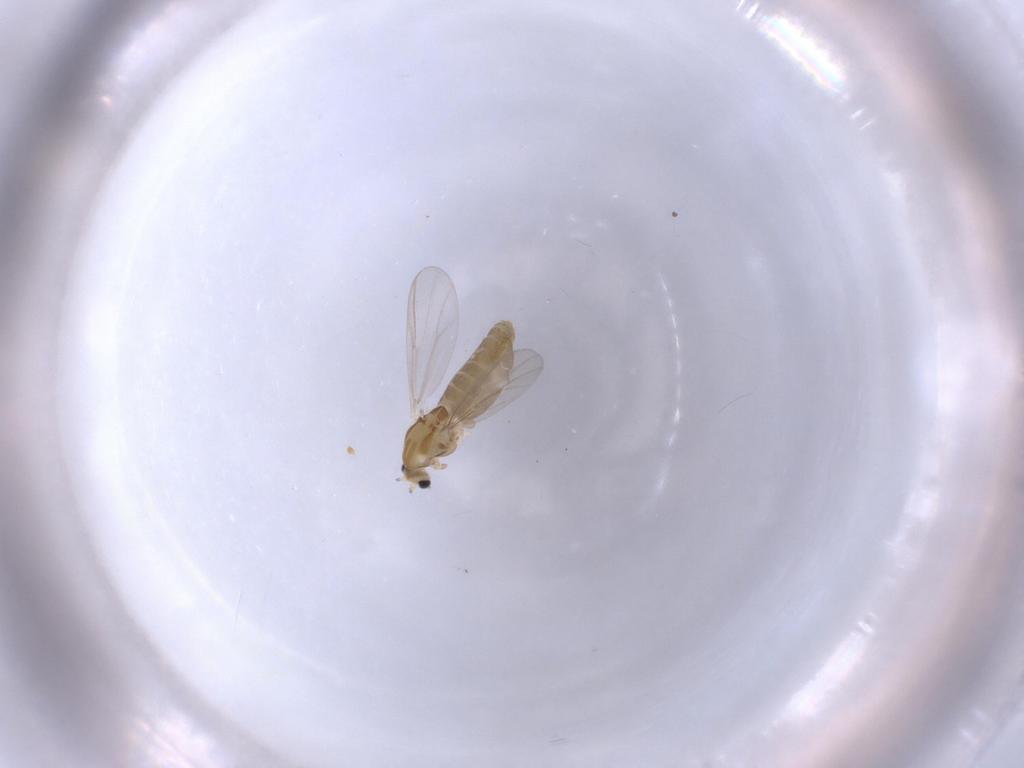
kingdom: Animalia
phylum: Arthropoda
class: Insecta
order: Diptera
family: Chironomidae
